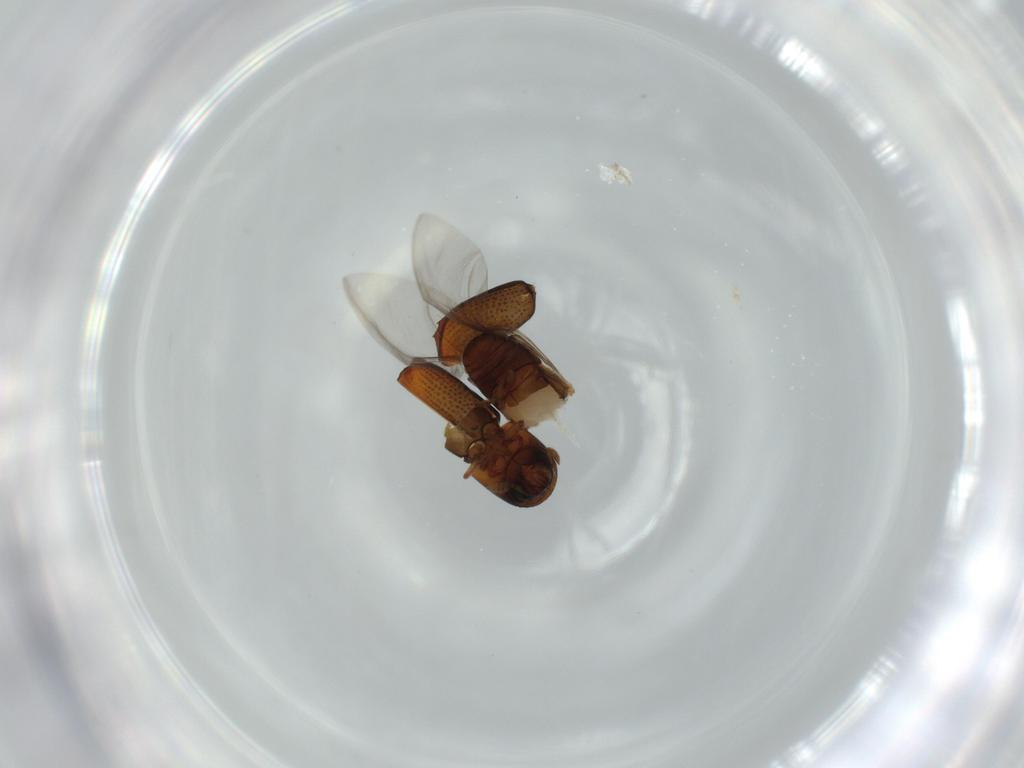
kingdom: Animalia
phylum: Arthropoda
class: Insecta
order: Coleoptera
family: Curculionidae
